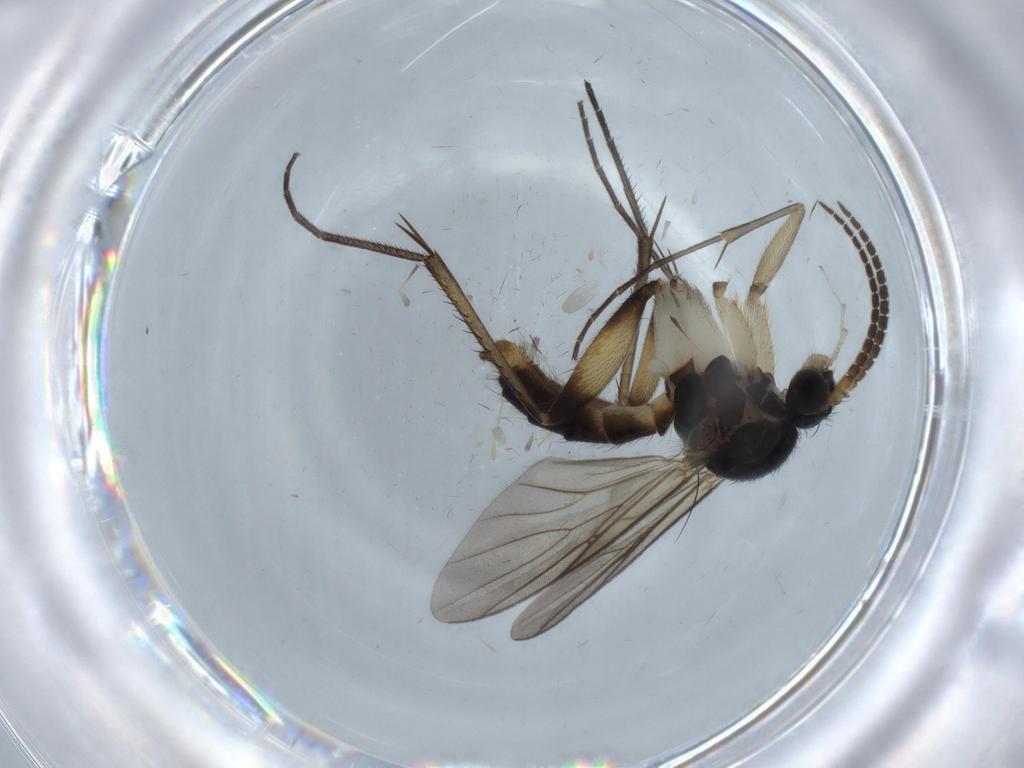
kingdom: Animalia
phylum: Arthropoda
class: Insecta
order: Diptera
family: Phoridae
